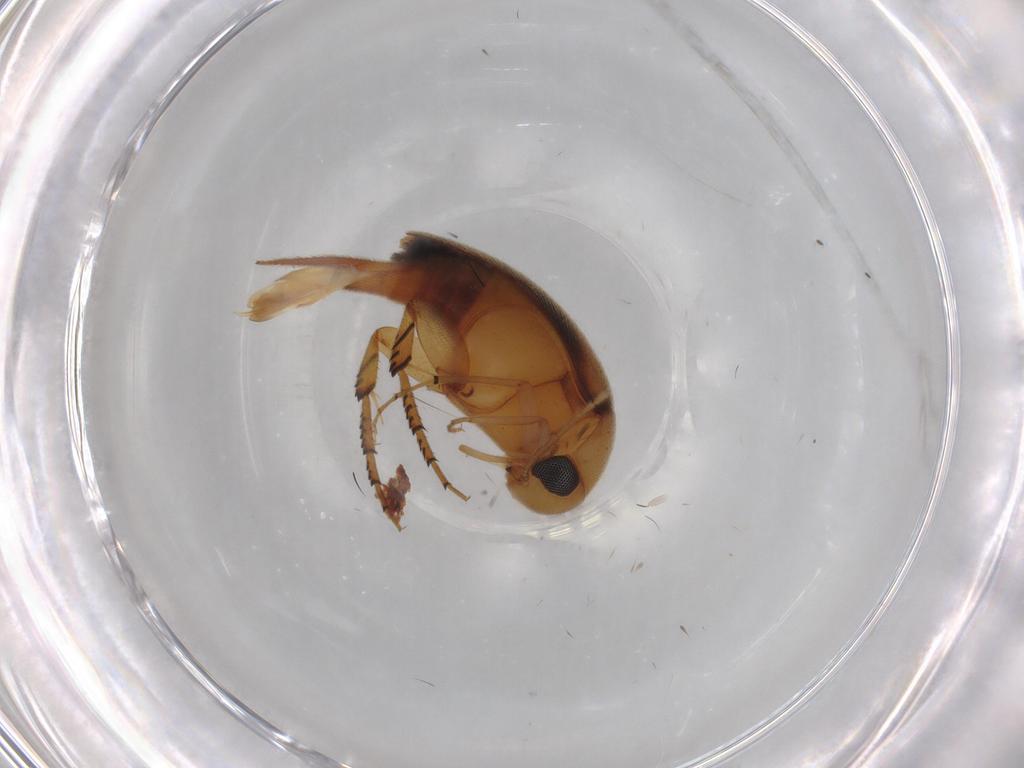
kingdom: Animalia
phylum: Arthropoda
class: Insecta
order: Coleoptera
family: Mordellidae
